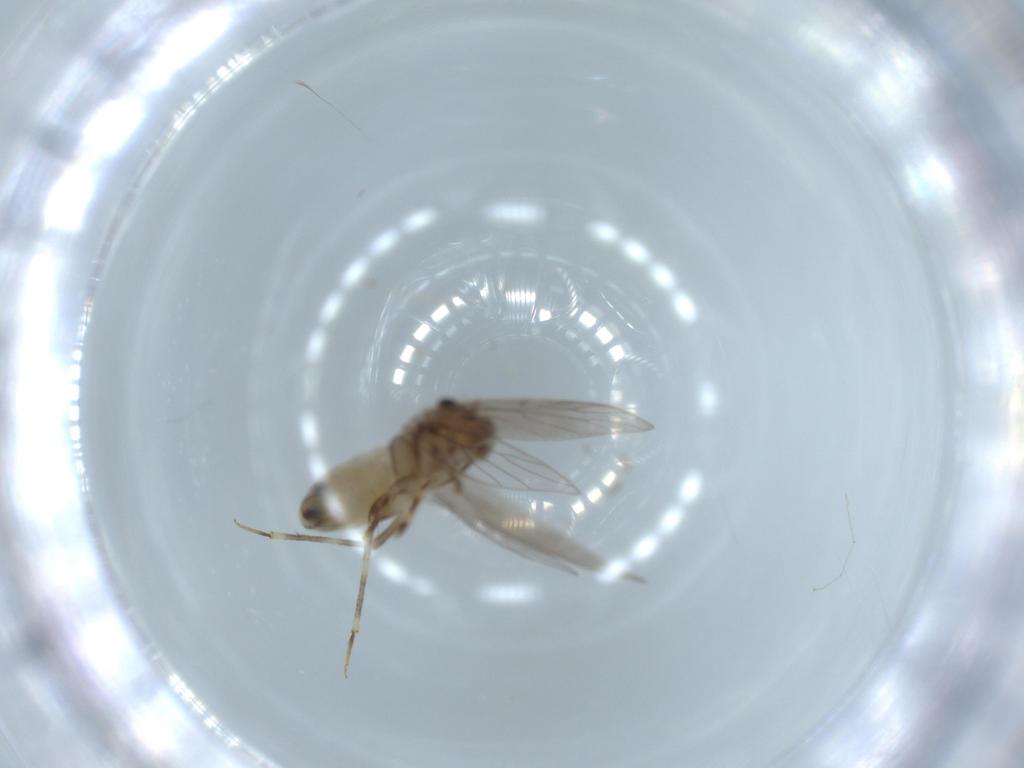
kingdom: Animalia
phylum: Arthropoda
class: Insecta
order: Psocodea
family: Lepidopsocidae
